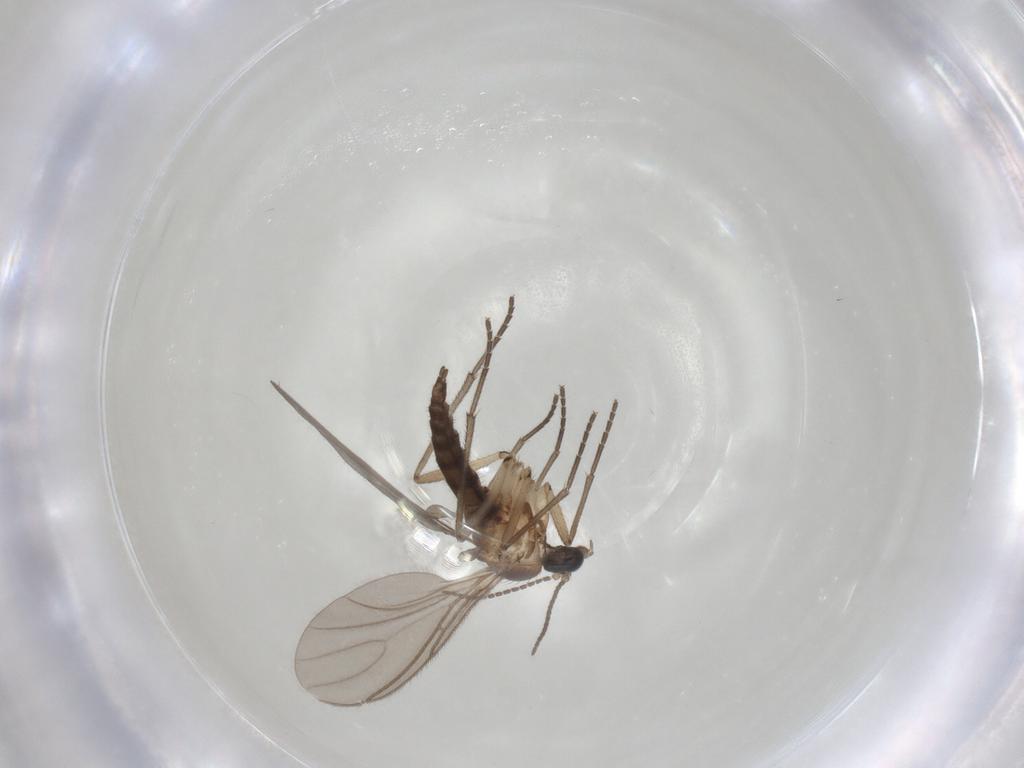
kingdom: Animalia
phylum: Arthropoda
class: Insecta
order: Diptera
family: Sciaridae
